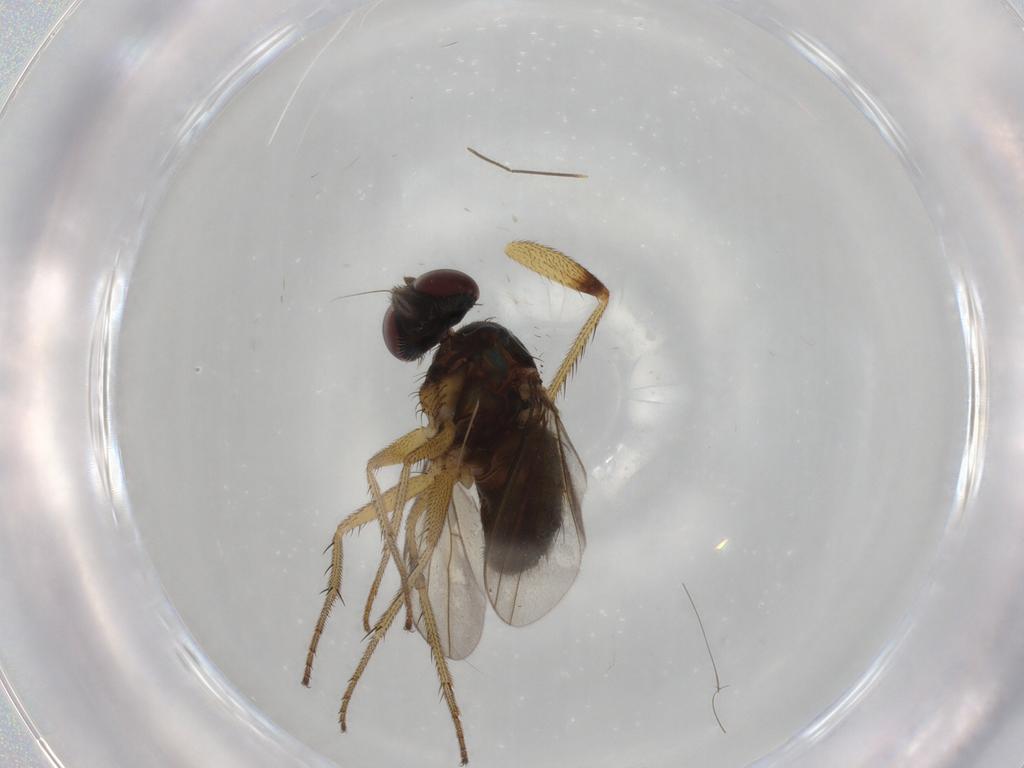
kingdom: Animalia
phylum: Arthropoda
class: Insecta
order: Diptera
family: Dolichopodidae
